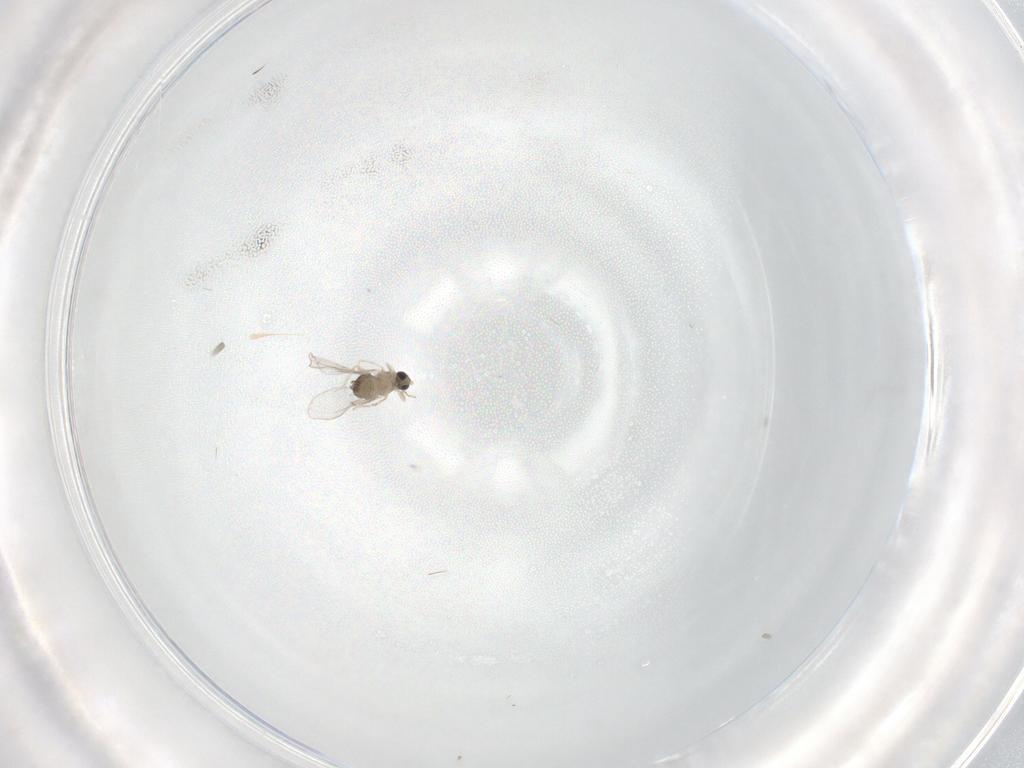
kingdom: Animalia
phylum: Arthropoda
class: Insecta
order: Diptera
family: Cecidomyiidae
